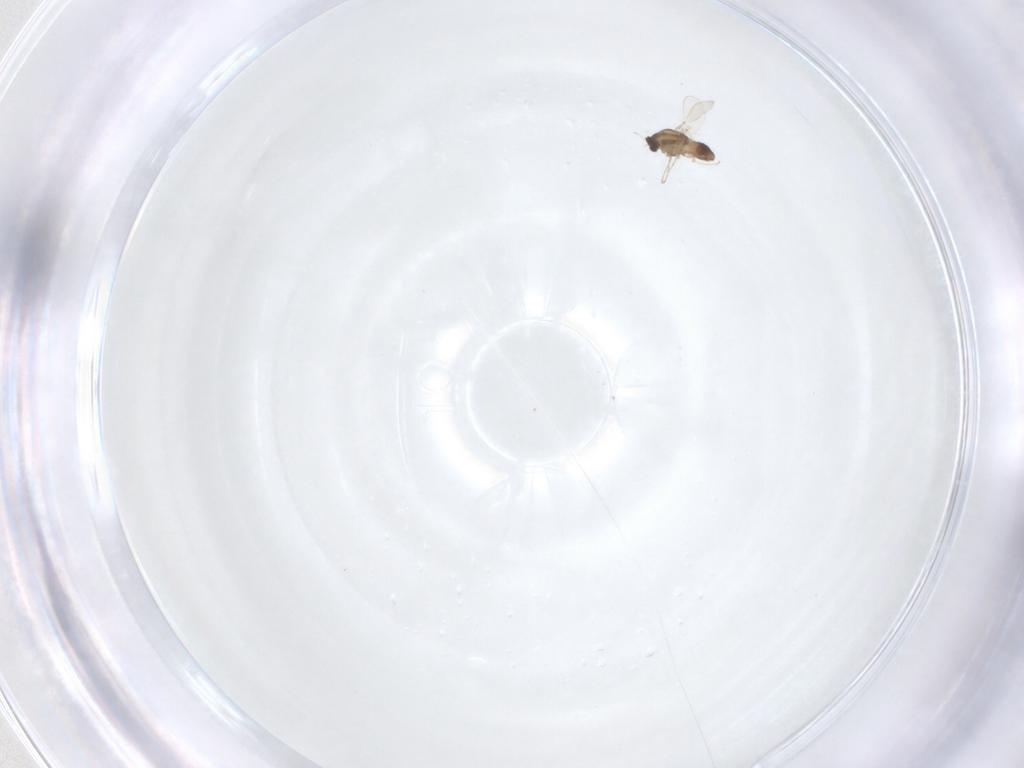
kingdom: Animalia
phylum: Arthropoda
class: Insecta
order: Diptera
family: Chironomidae
